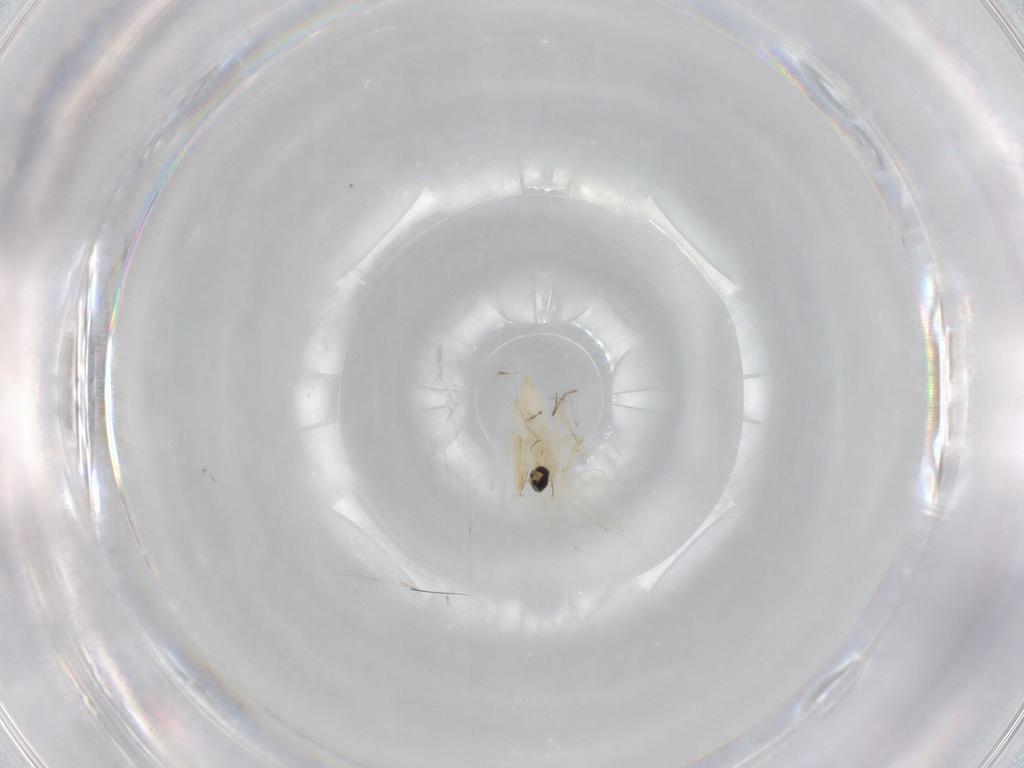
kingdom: Animalia
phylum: Arthropoda
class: Insecta
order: Diptera
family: Cecidomyiidae
